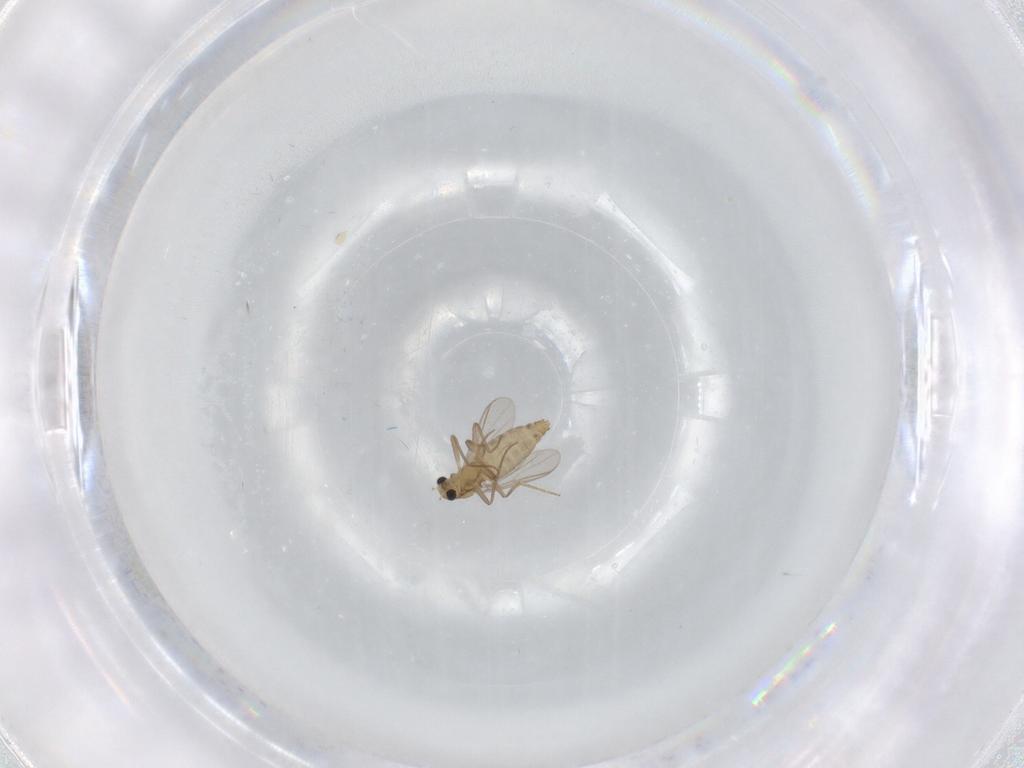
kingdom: Animalia
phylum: Arthropoda
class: Insecta
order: Diptera
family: Chironomidae
